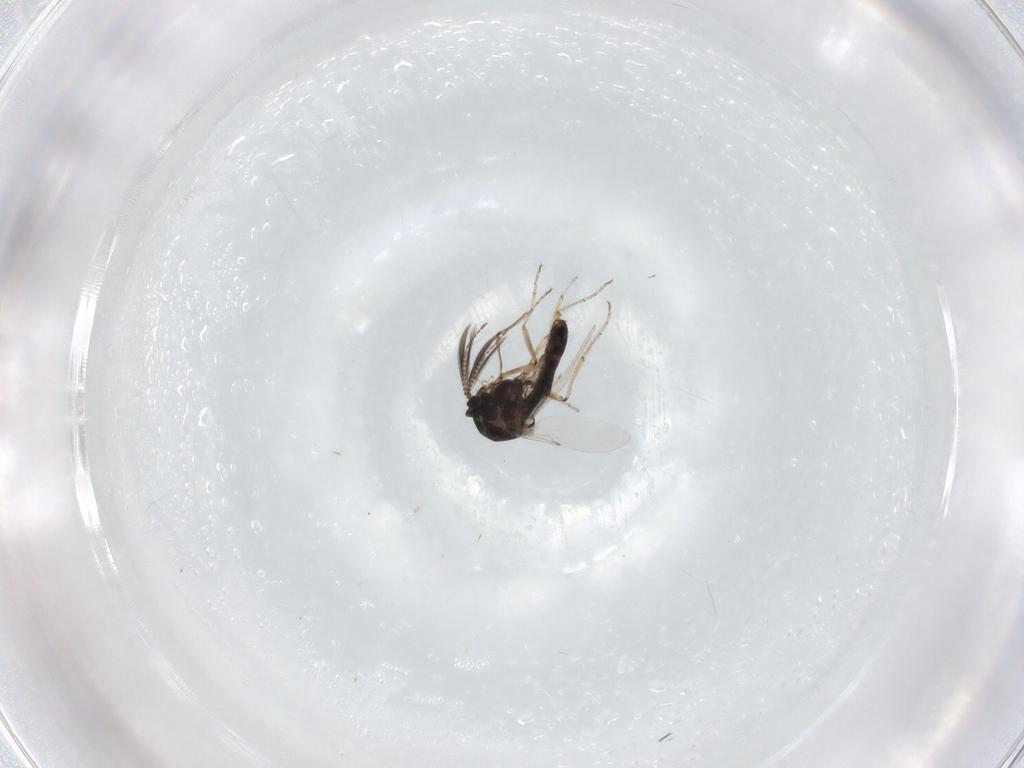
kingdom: Animalia
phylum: Arthropoda
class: Insecta
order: Diptera
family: Ceratopogonidae
